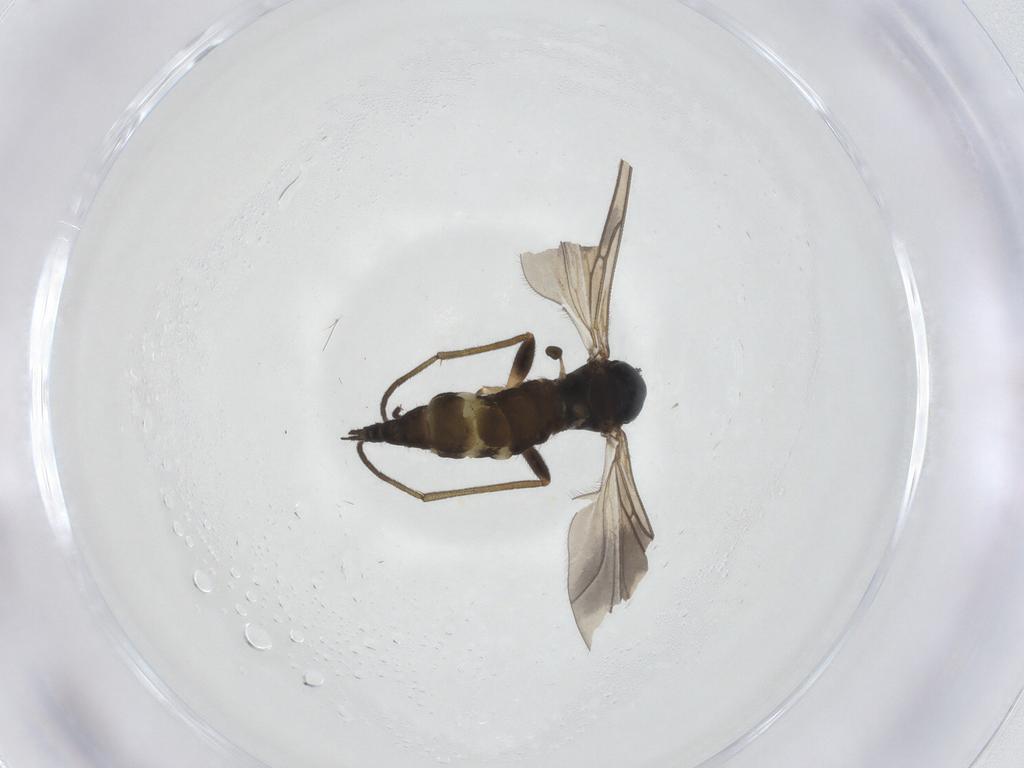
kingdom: Animalia
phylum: Arthropoda
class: Insecta
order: Diptera
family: Sciaridae
